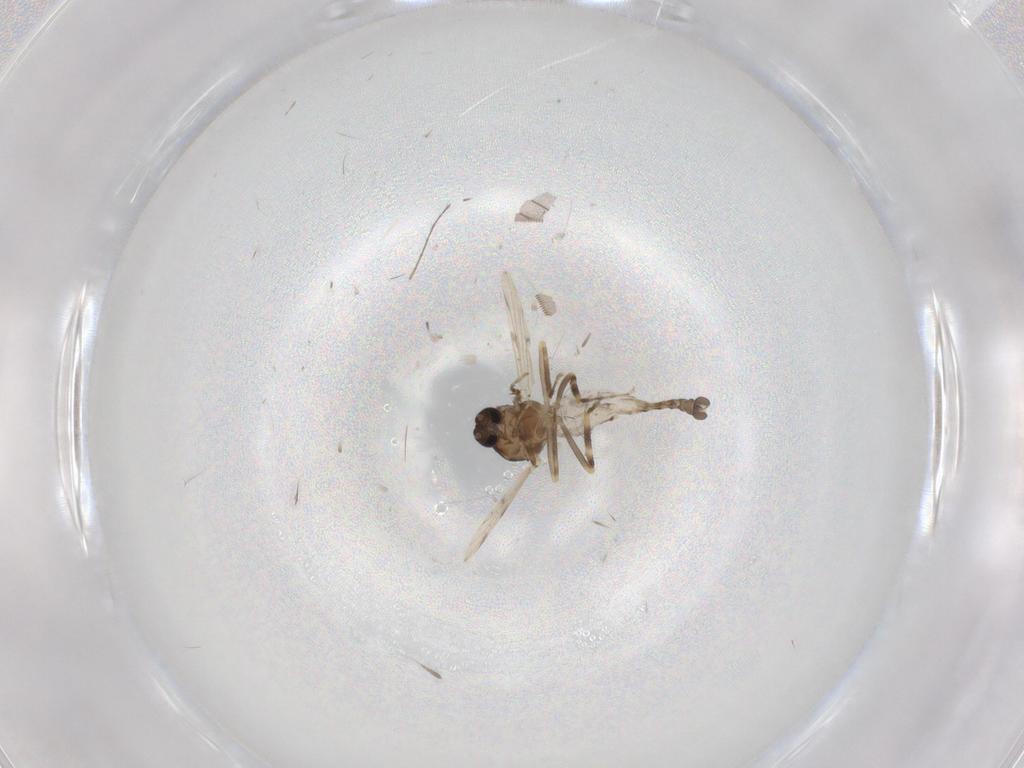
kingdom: Animalia
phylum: Arthropoda
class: Insecta
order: Diptera
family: Ceratopogonidae
